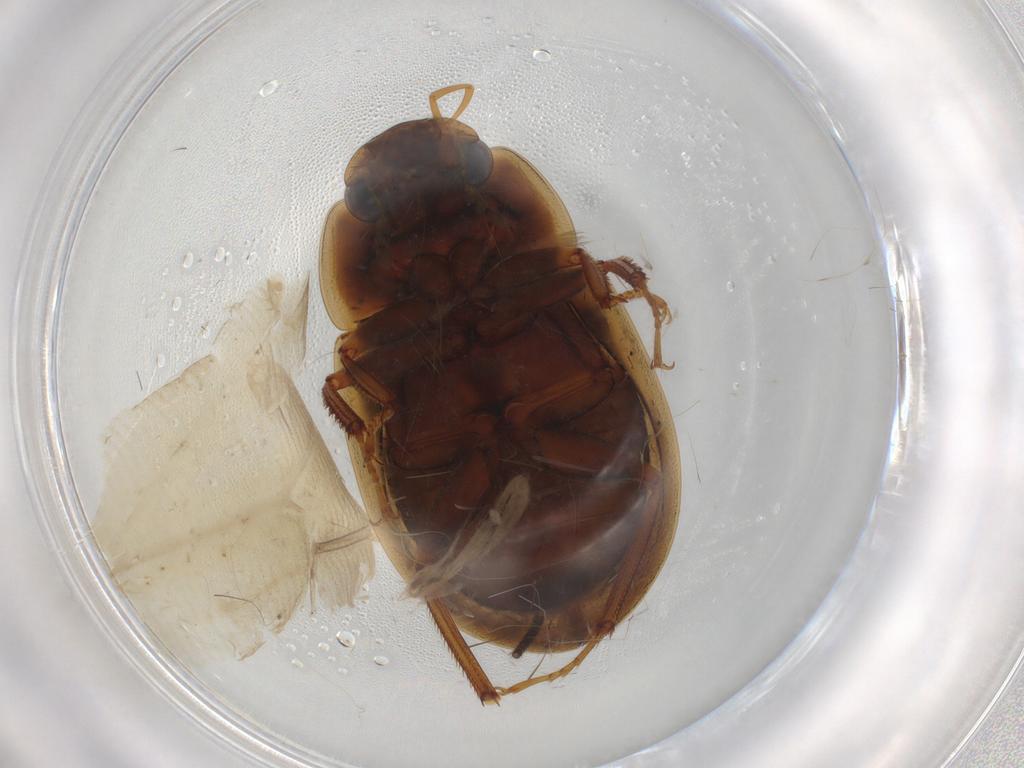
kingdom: Animalia
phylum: Arthropoda
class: Insecta
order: Coleoptera
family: Hydrophilidae
